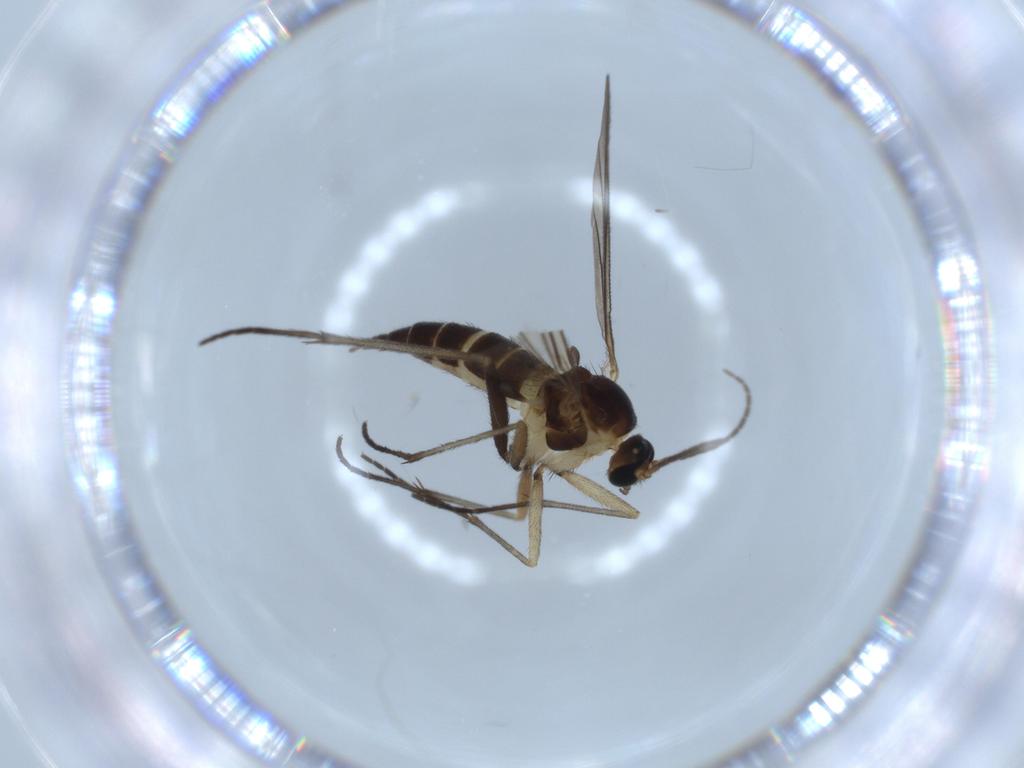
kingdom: Animalia
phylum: Arthropoda
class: Insecta
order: Diptera
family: Sciaridae
